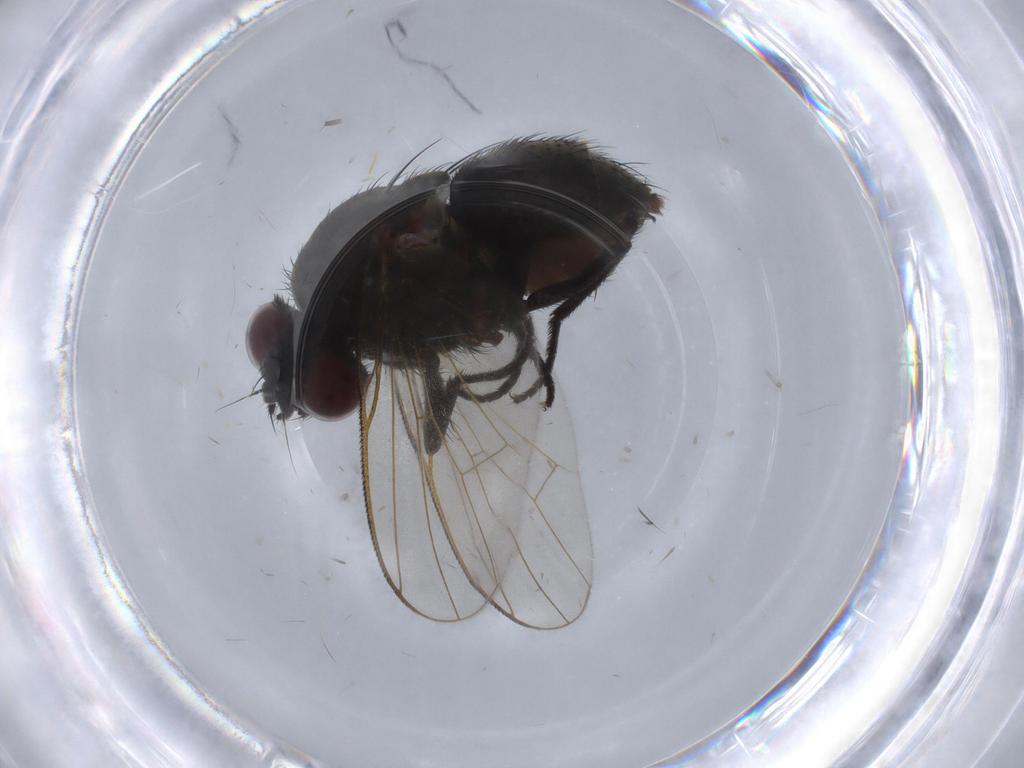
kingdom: Animalia
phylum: Arthropoda
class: Insecta
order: Diptera
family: Muscidae
